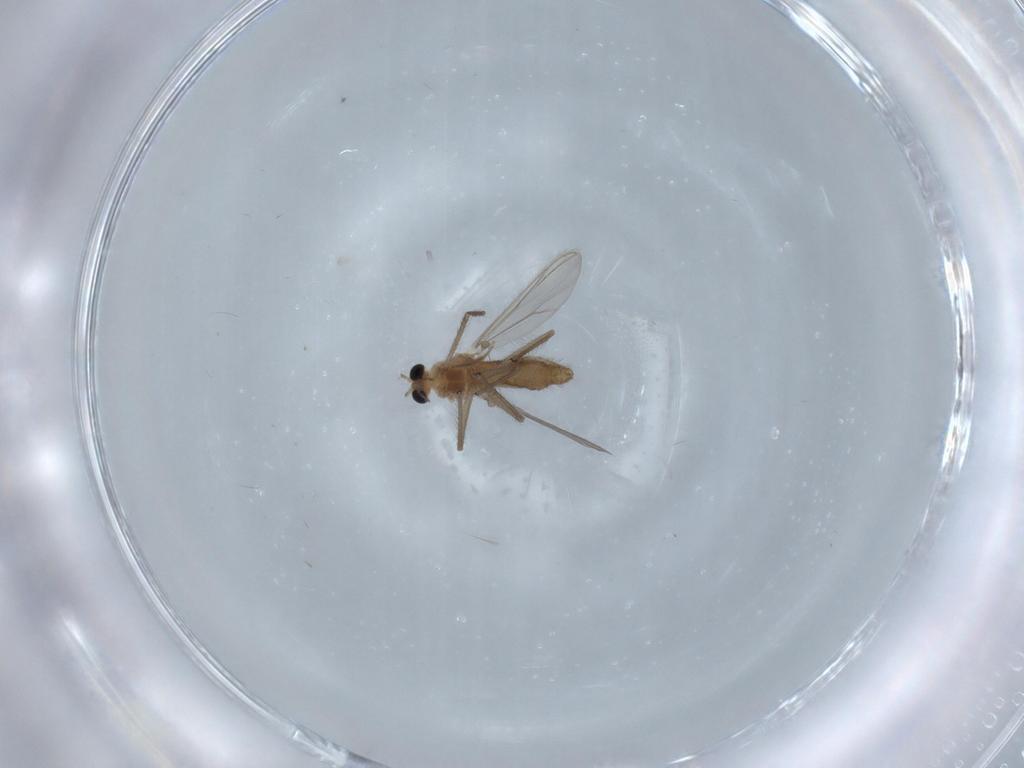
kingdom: Animalia
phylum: Arthropoda
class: Insecta
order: Diptera
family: Chironomidae
